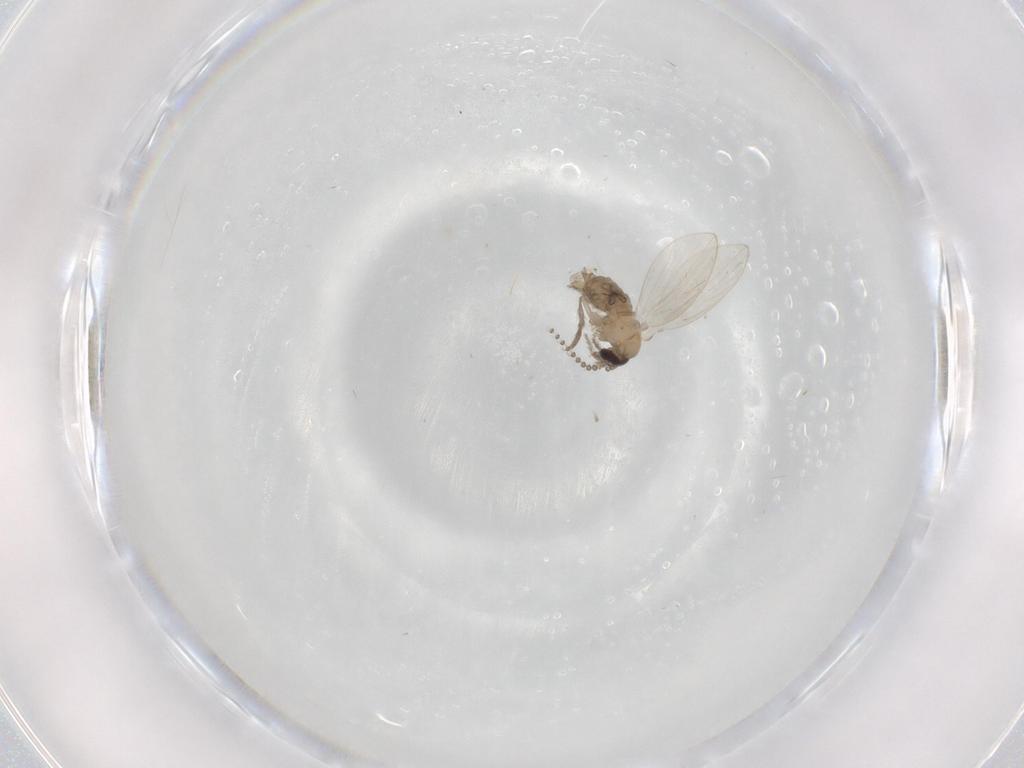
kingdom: Animalia
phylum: Arthropoda
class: Insecta
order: Diptera
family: Psychodidae
